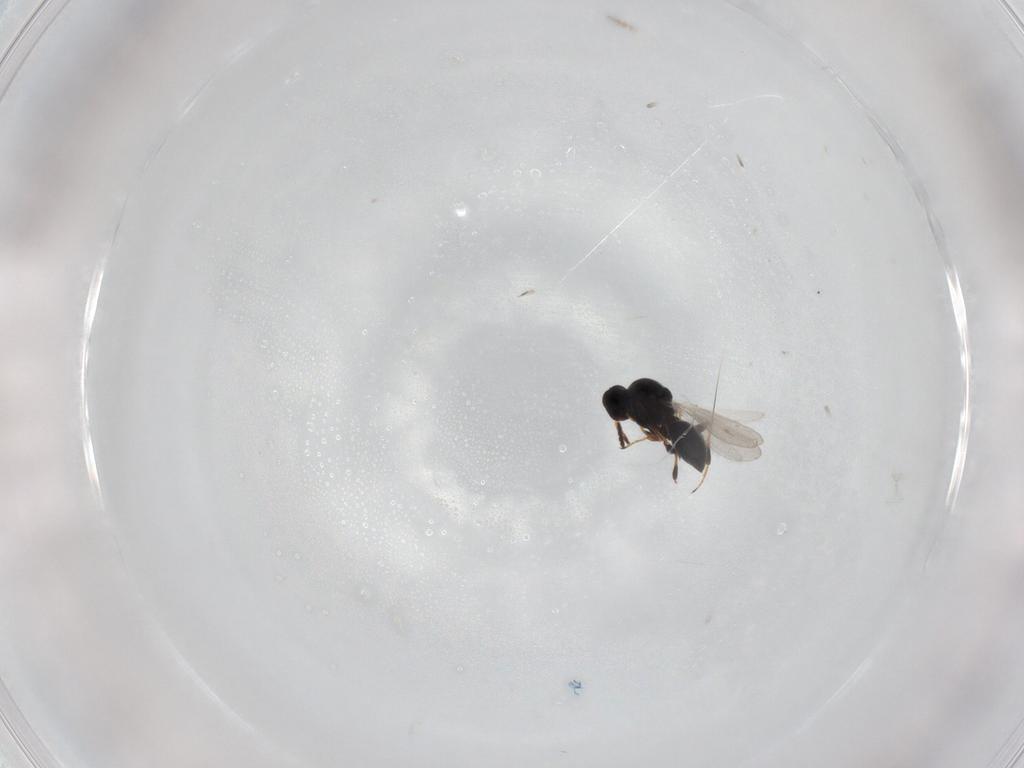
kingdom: Animalia
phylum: Arthropoda
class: Insecta
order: Hymenoptera
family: Platygastridae
